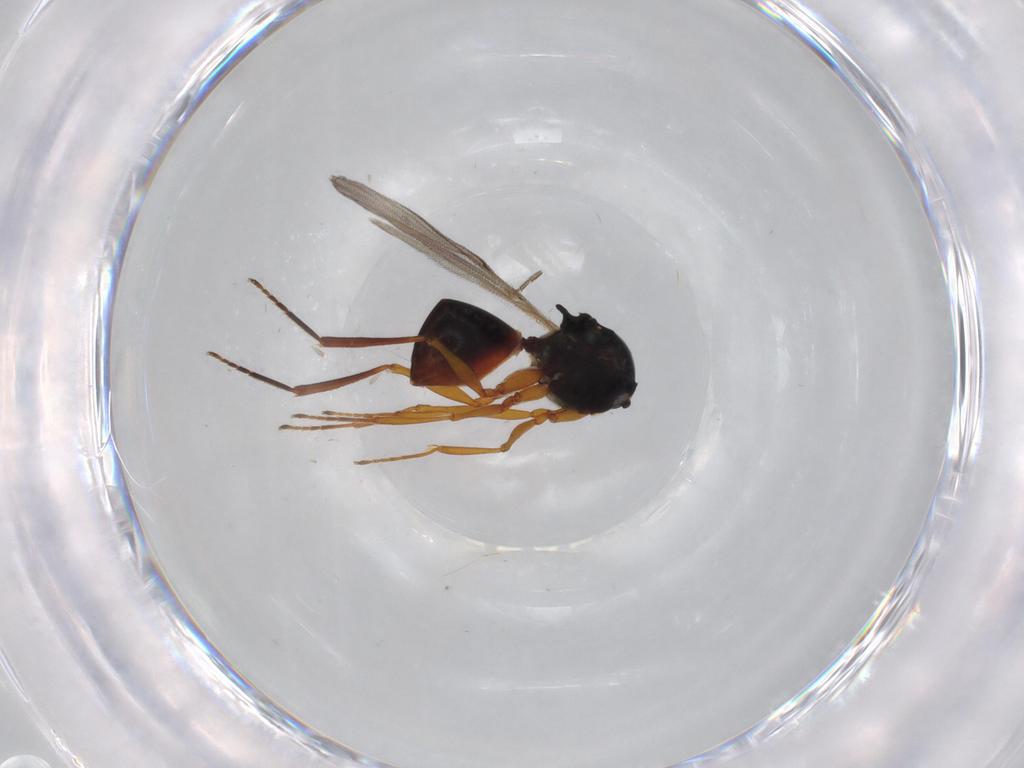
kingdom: Animalia
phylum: Arthropoda
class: Insecta
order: Hymenoptera
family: Figitidae
